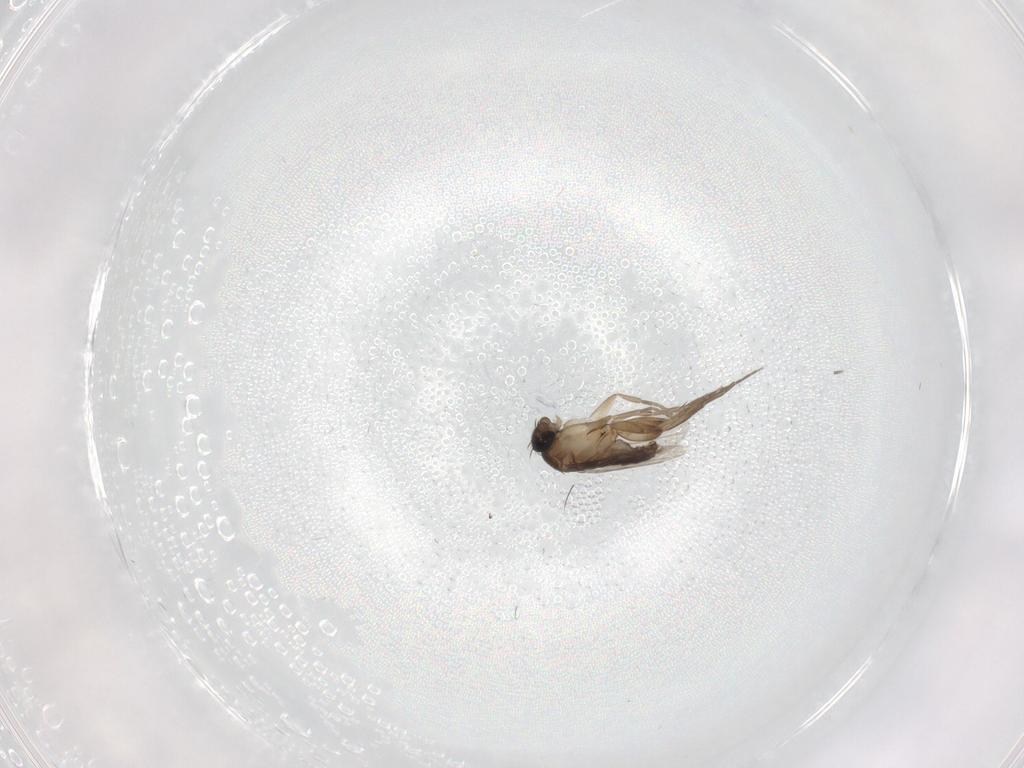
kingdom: Animalia
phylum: Arthropoda
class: Insecta
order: Diptera
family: Phoridae
